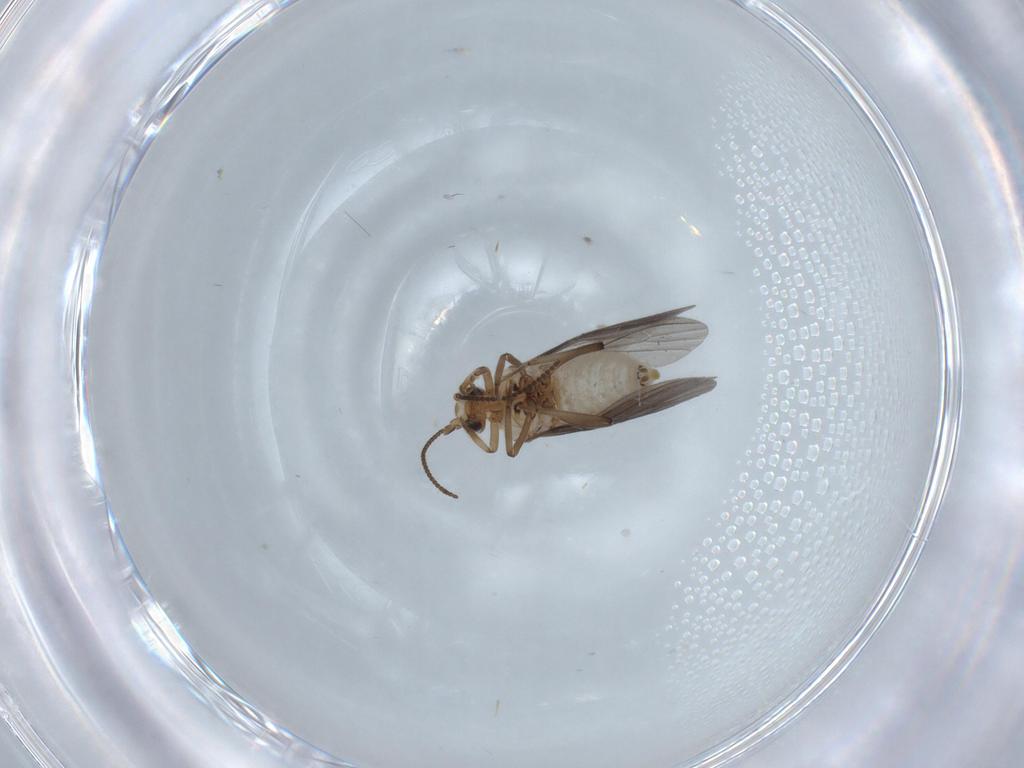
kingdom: Animalia
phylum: Arthropoda
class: Insecta
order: Neuroptera
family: Coniopterygidae
